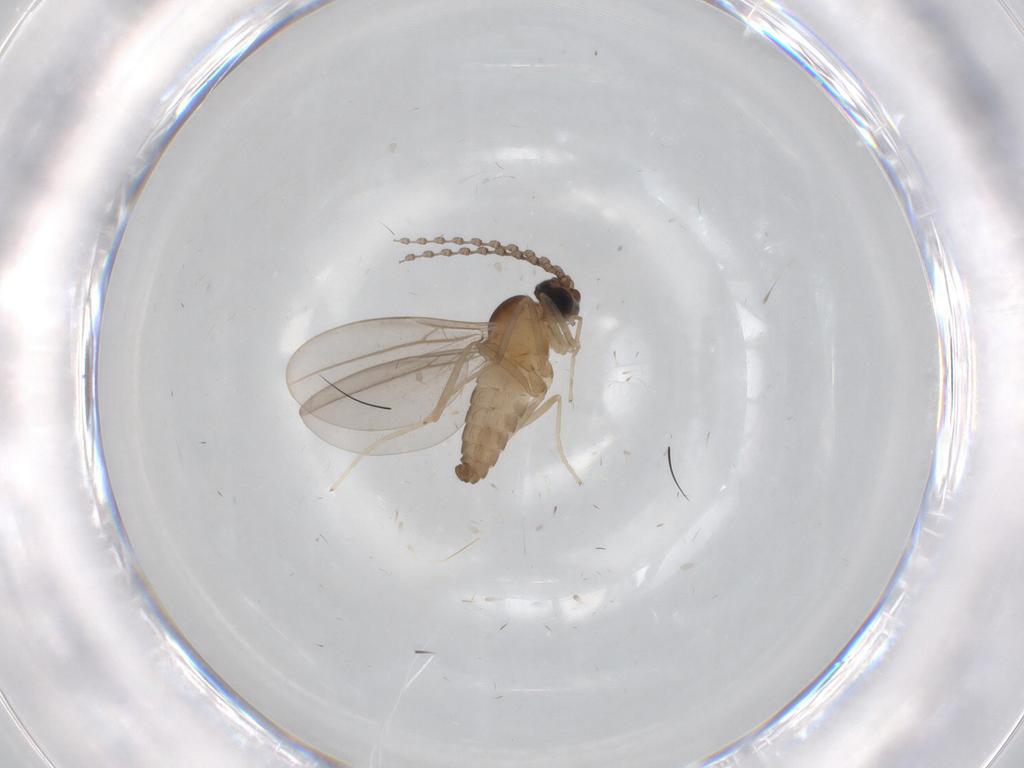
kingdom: Animalia
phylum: Arthropoda
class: Insecta
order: Diptera
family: Cecidomyiidae
